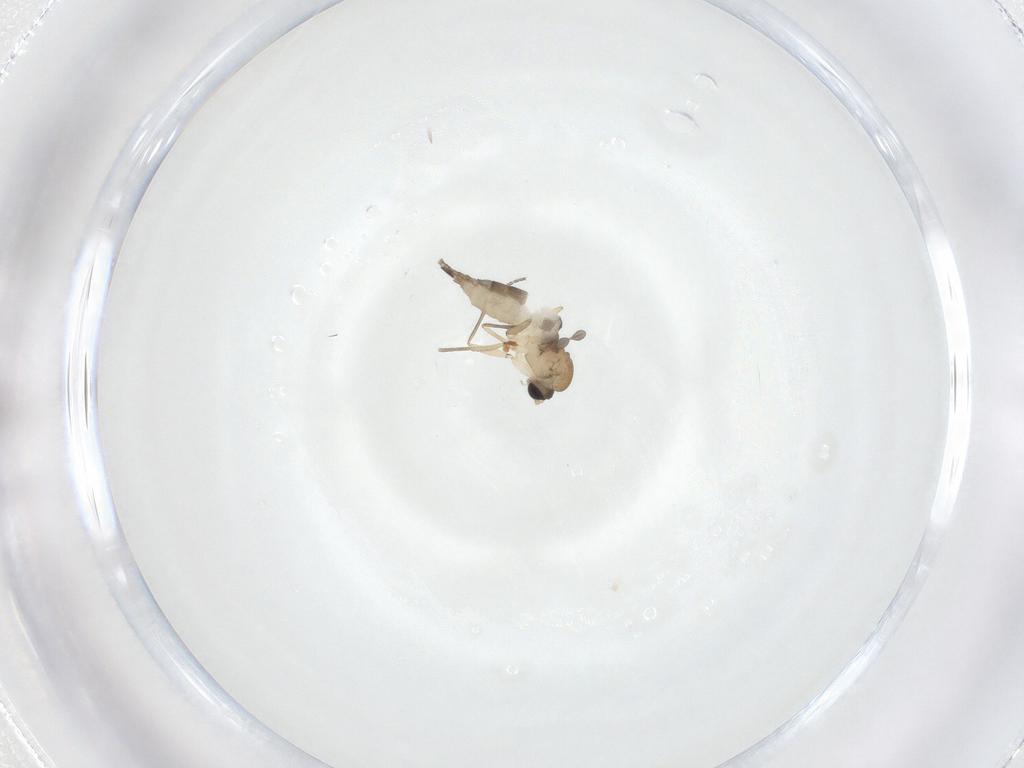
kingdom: Animalia
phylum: Arthropoda
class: Insecta
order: Diptera
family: Sciaridae
